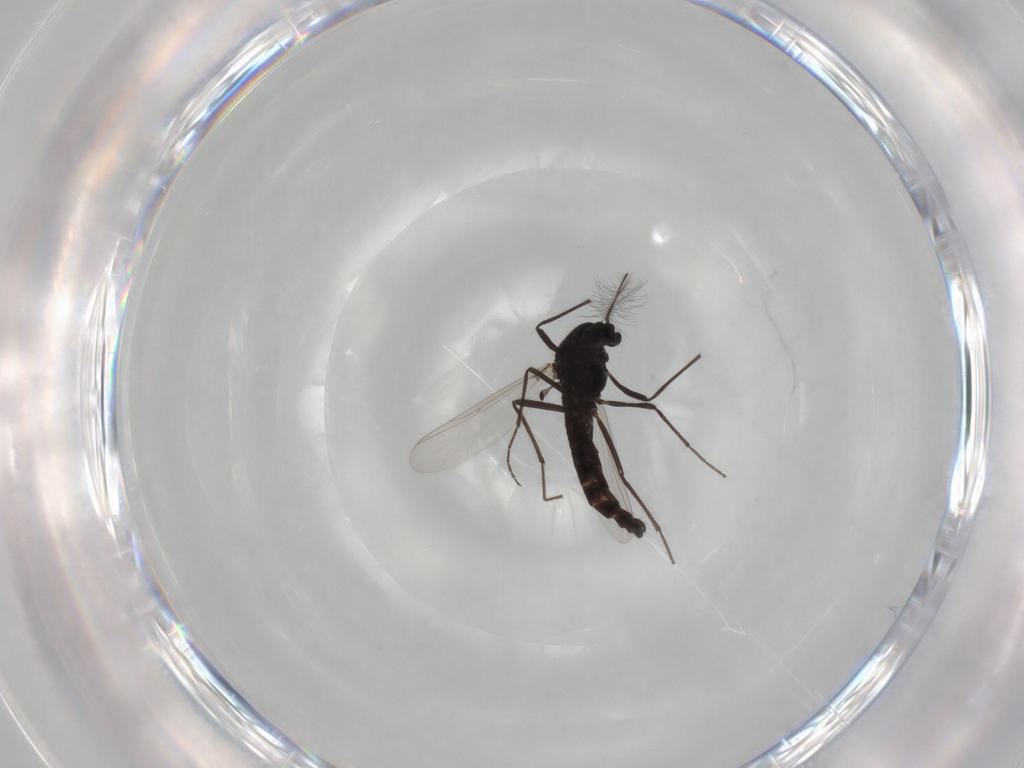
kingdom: Animalia
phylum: Arthropoda
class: Insecta
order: Diptera
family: Chironomidae
